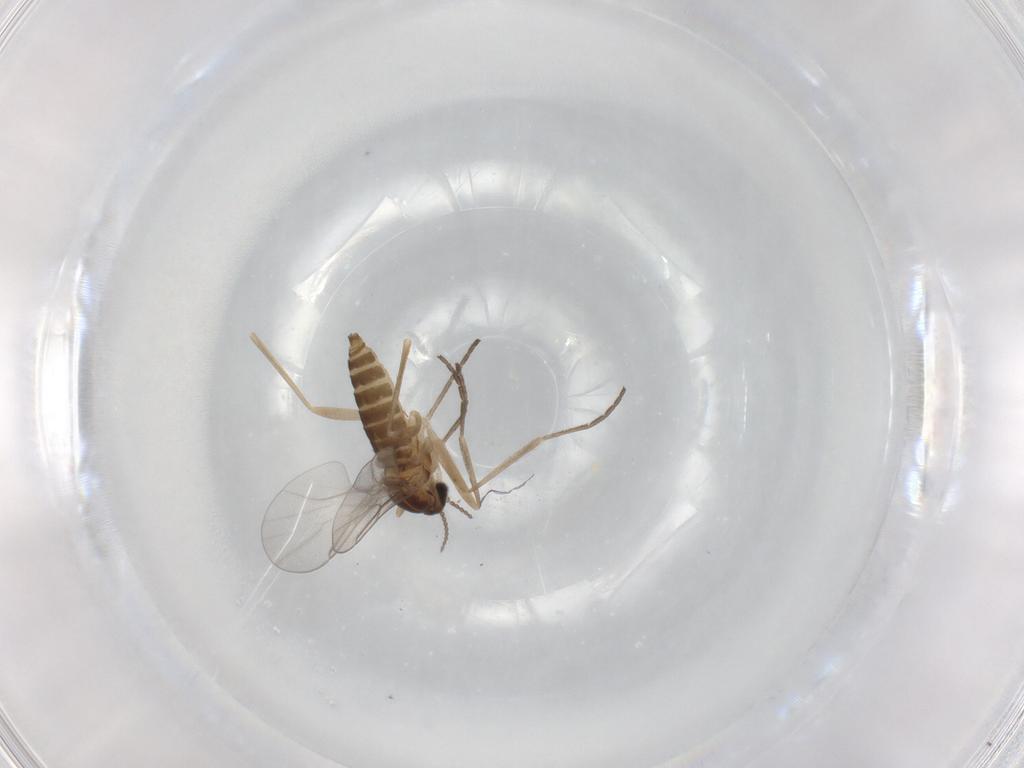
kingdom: Animalia
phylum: Arthropoda
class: Insecta
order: Diptera
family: Cecidomyiidae
